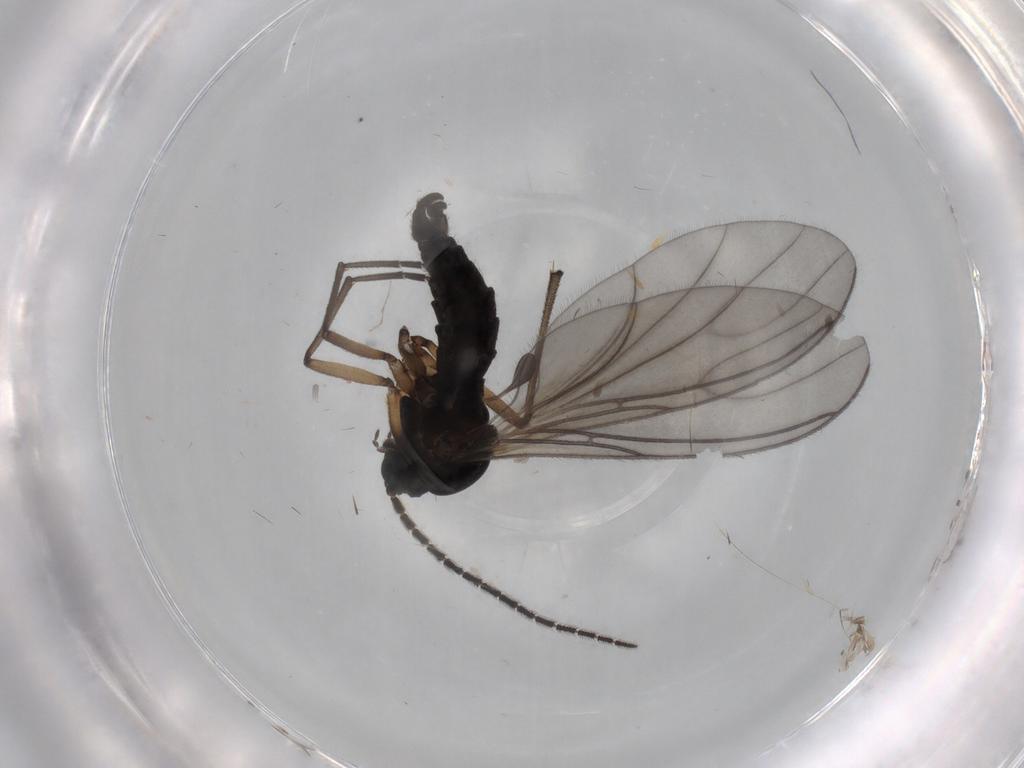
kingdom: Animalia
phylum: Arthropoda
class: Insecta
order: Diptera
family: Sciaridae
